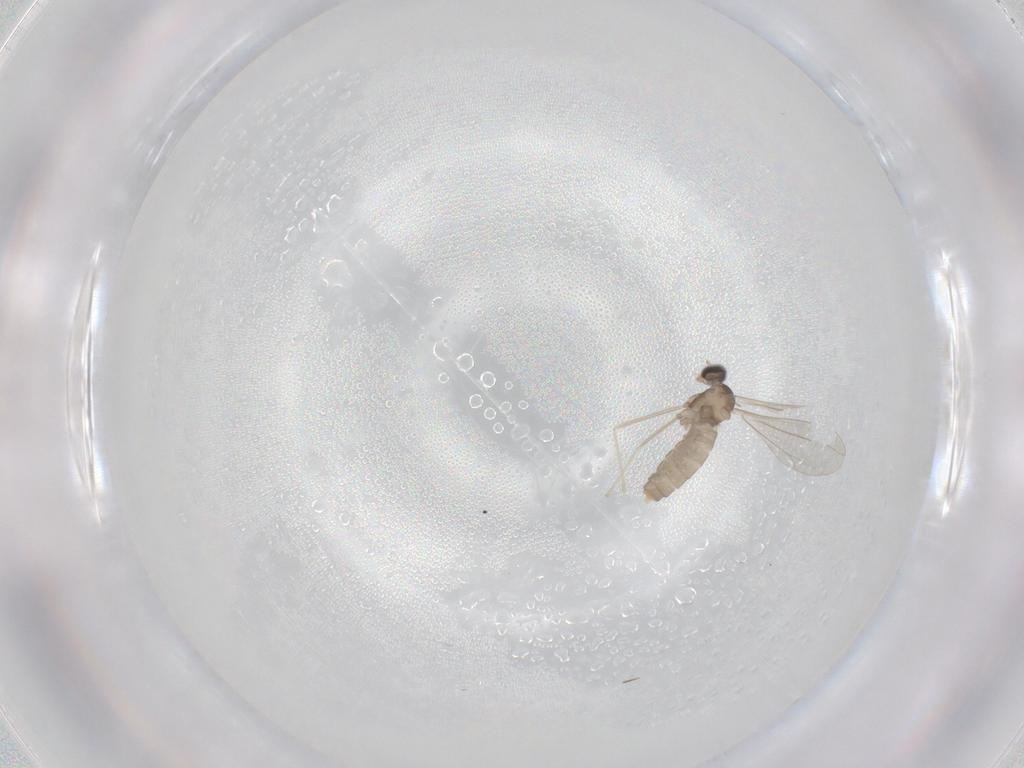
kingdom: Animalia
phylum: Arthropoda
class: Insecta
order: Diptera
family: Cecidomyiidae
